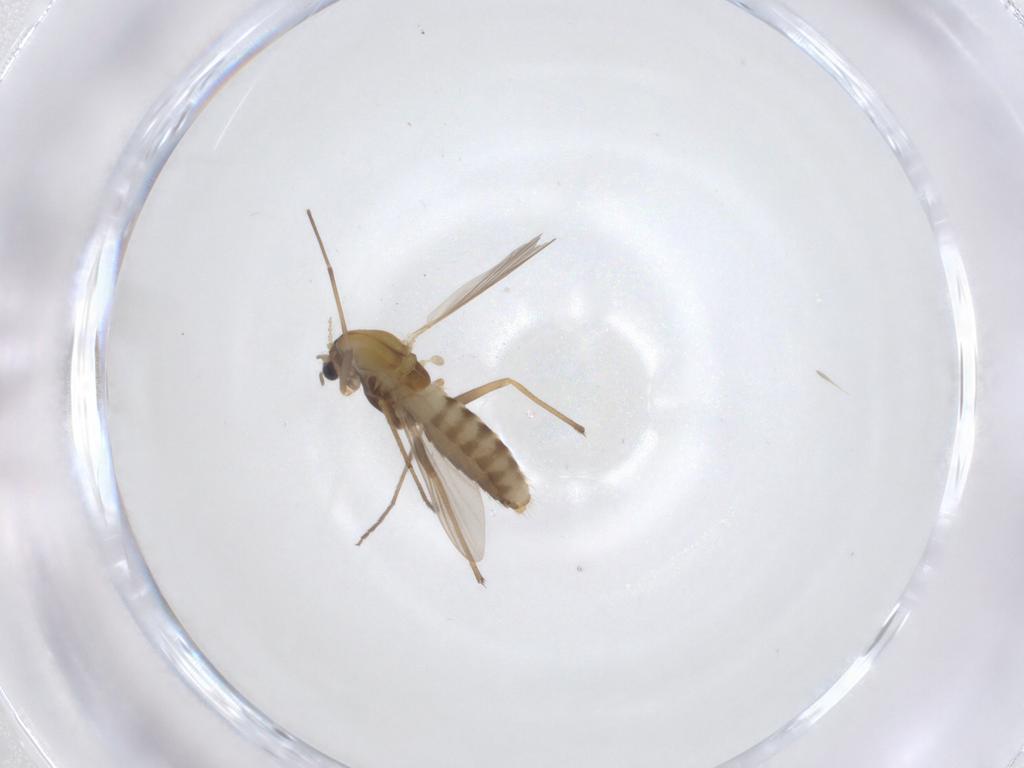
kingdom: Animalia
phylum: Arthropoda
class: Insecta
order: Diptera
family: Chironomidae
